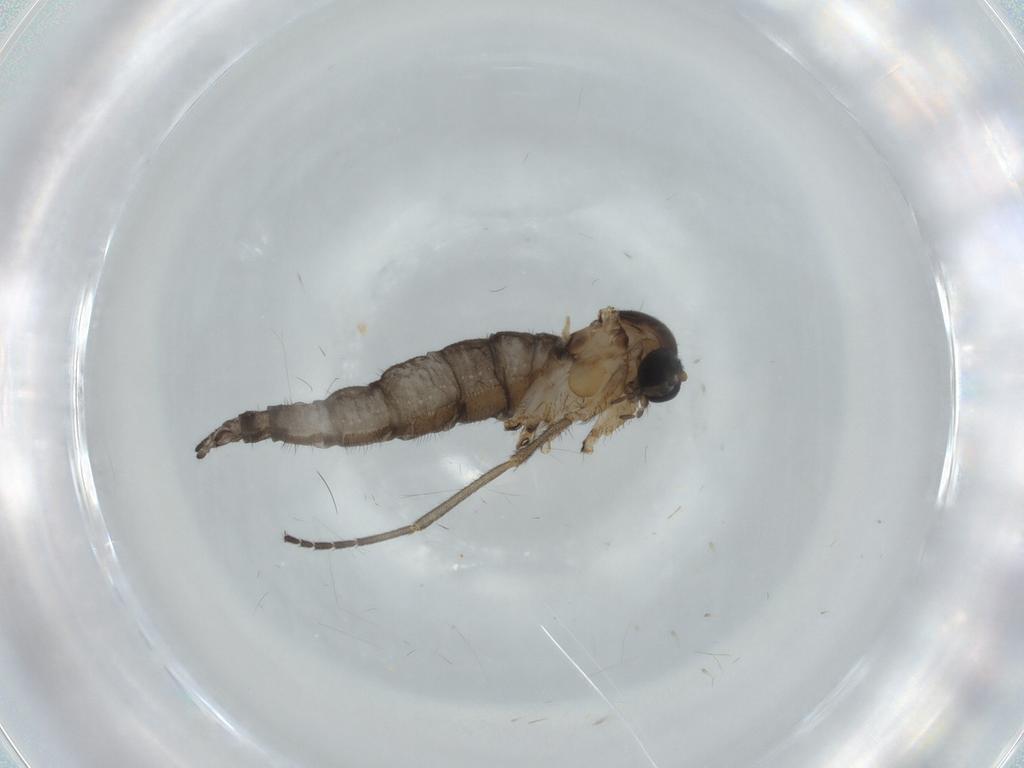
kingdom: Animalia
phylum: Arthropoda
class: Insecta
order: Diptera
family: Sciaridae
